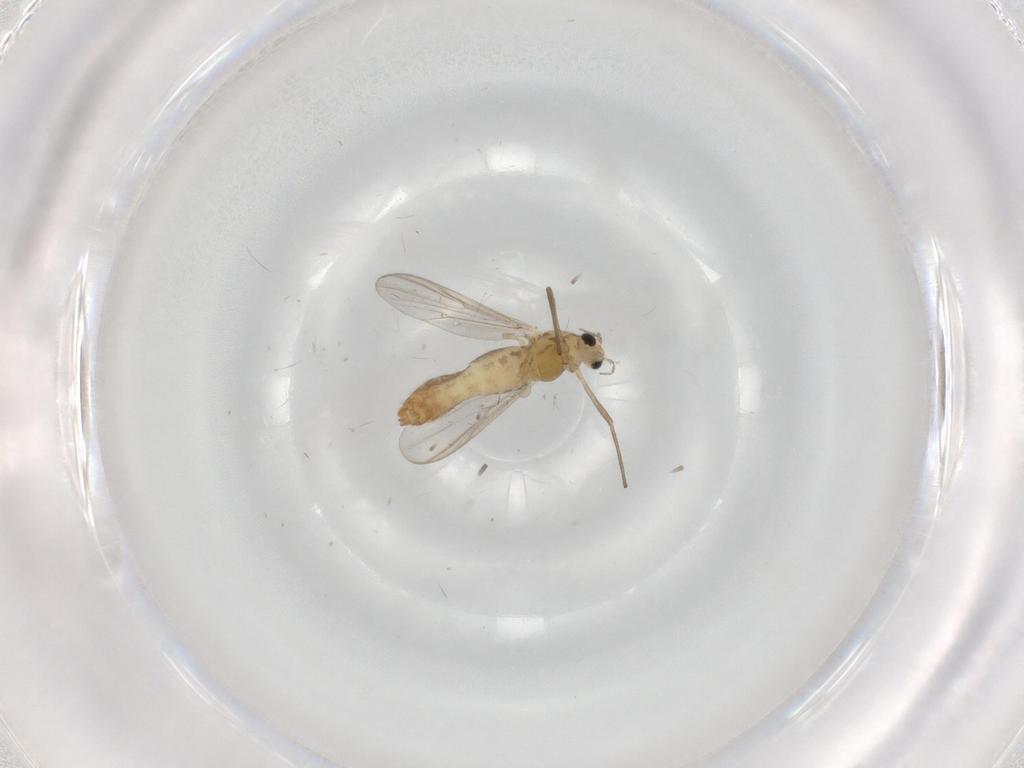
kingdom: Animalia
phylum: Arthropoda
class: Insecta
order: Diptera
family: Chironomidae
